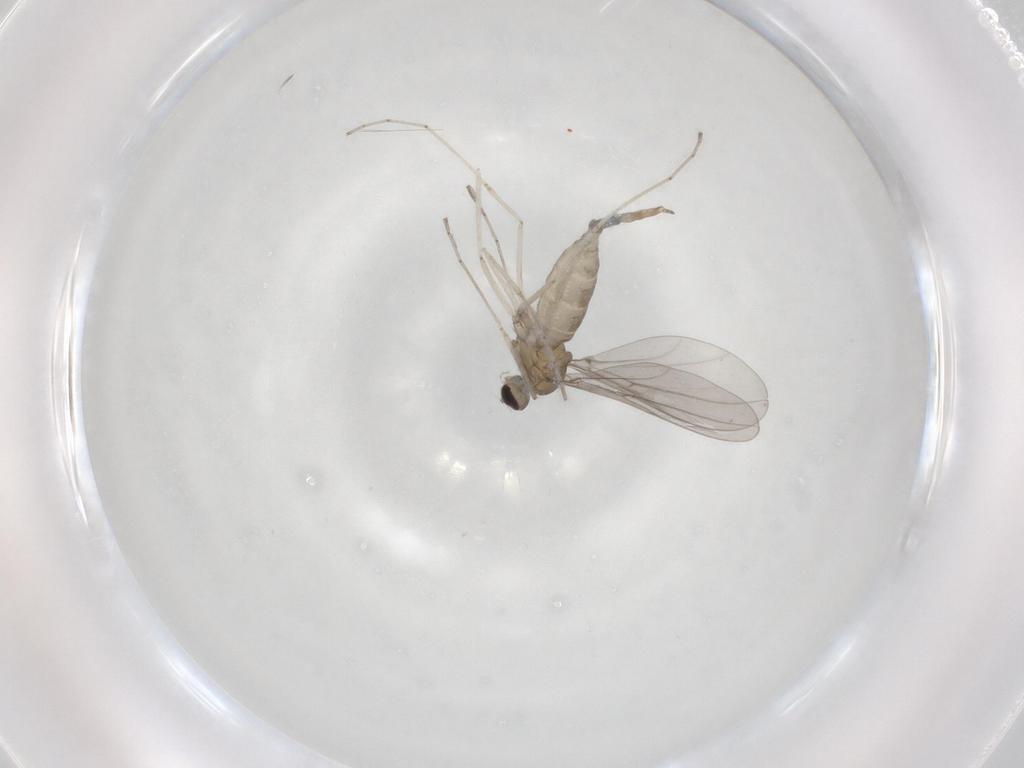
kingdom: Animalia
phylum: Arthropoda
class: Insecta
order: Diptera
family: Cecidomyiidae
